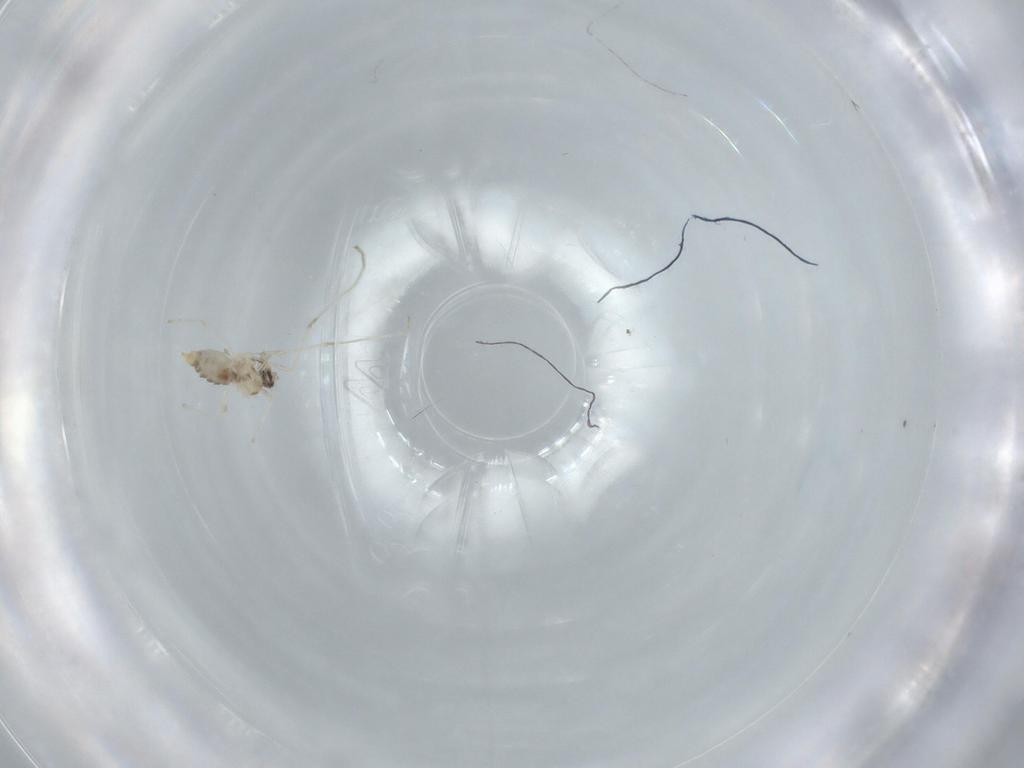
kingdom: Animalia
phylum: Arthropoda
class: Insecta
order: Diptera
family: Cecidomyiidae
